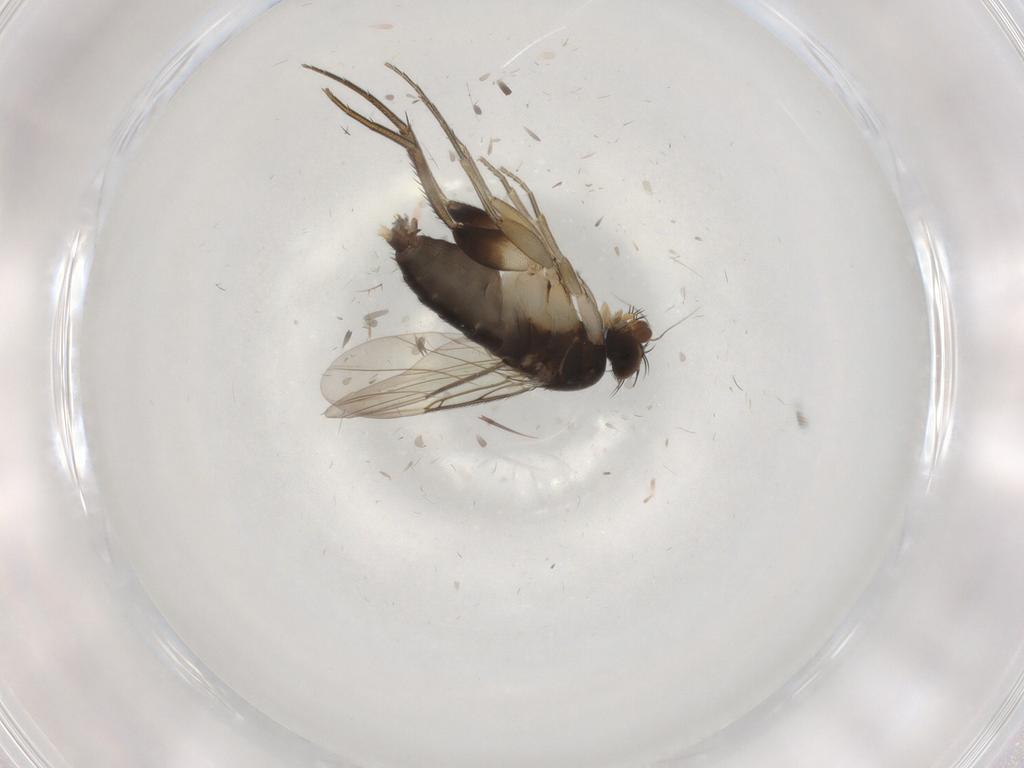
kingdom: Animalia
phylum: Arthropoda
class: Insecta
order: Diptera
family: Phoridae
